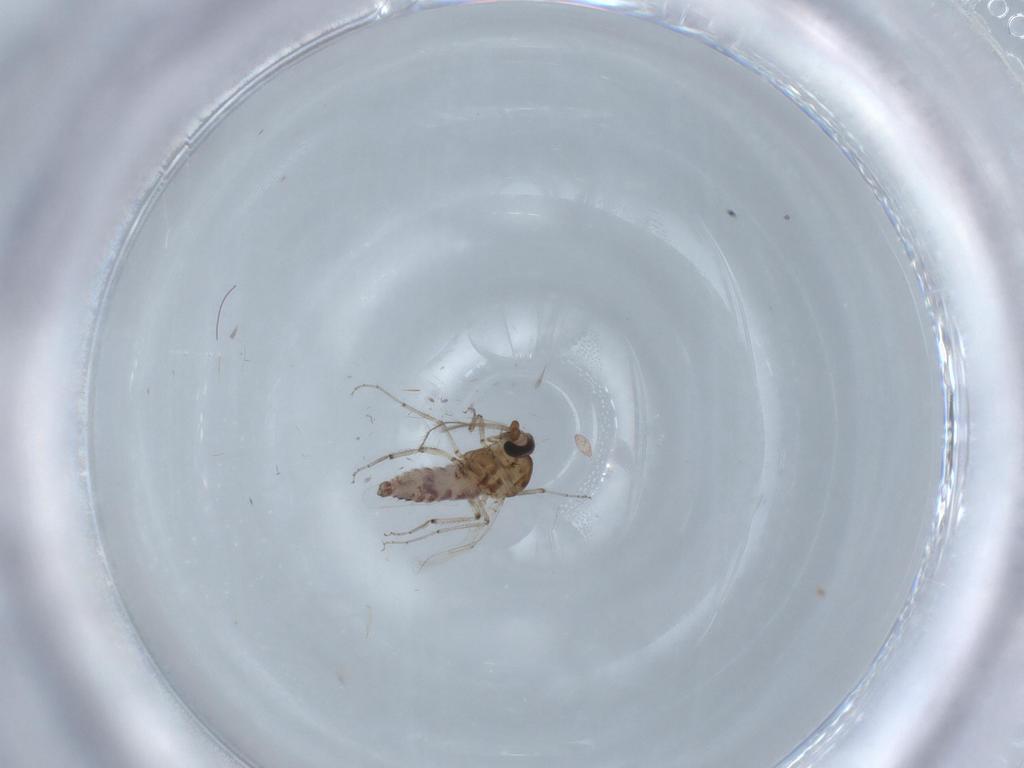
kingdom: Animalia
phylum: Arthropoda
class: Insecta
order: Diptera
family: Ceratopogonidae
